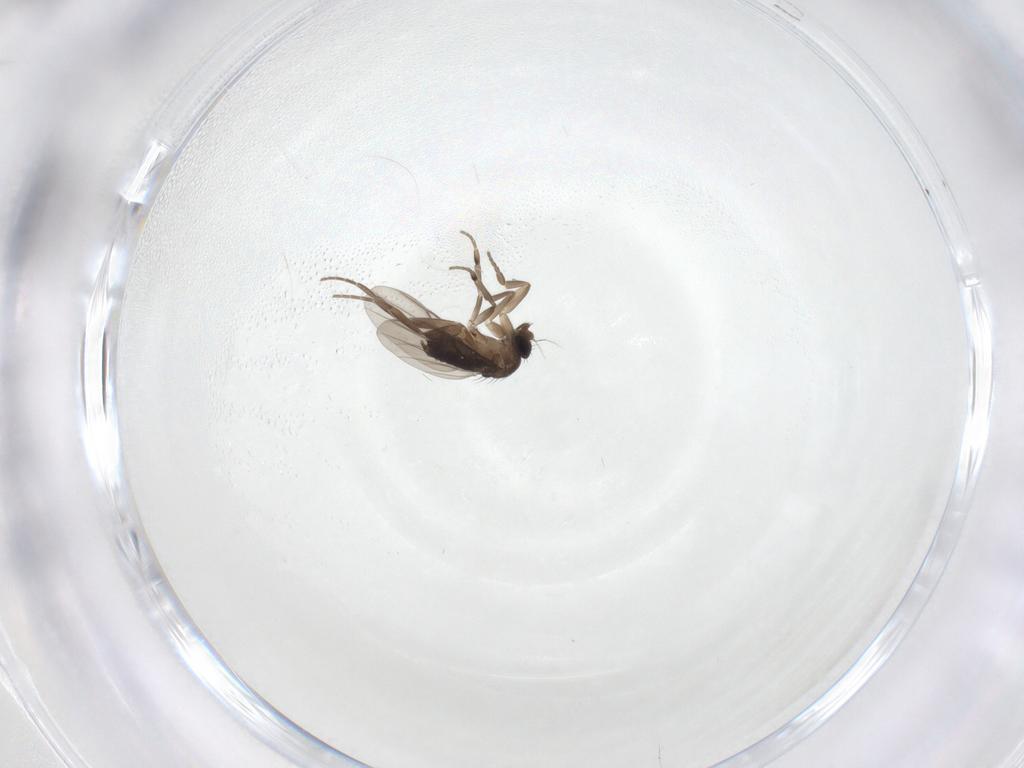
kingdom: Animalia
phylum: Arthropoda
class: Insecta
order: Diptera
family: Phoridae
